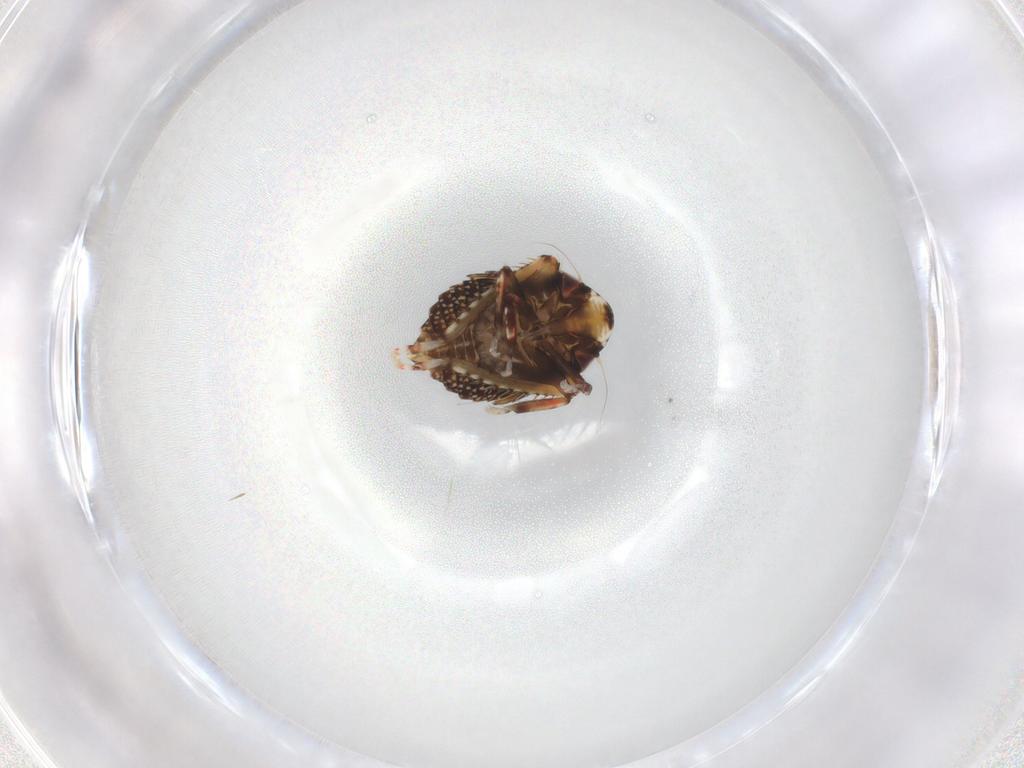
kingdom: Animalia
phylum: Arthropoda
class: Insecta
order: Hemiptera
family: Cicadellidae
